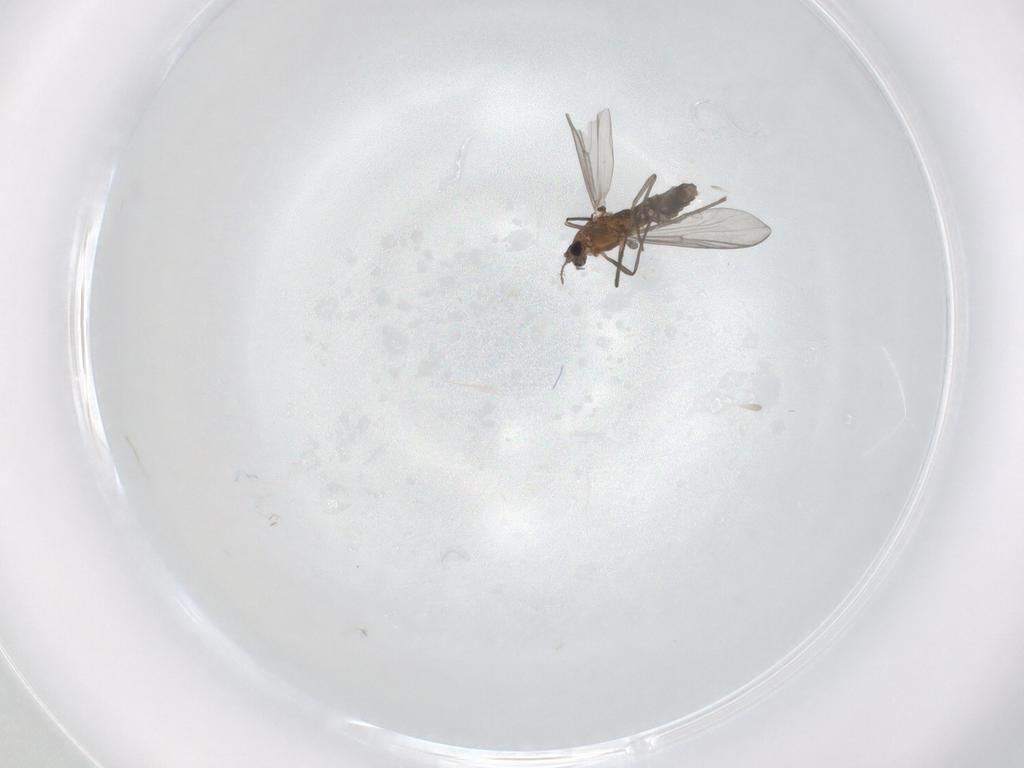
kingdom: Animalia
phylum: Arthropoda
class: Insecta
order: Diptera
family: Chironomidae
